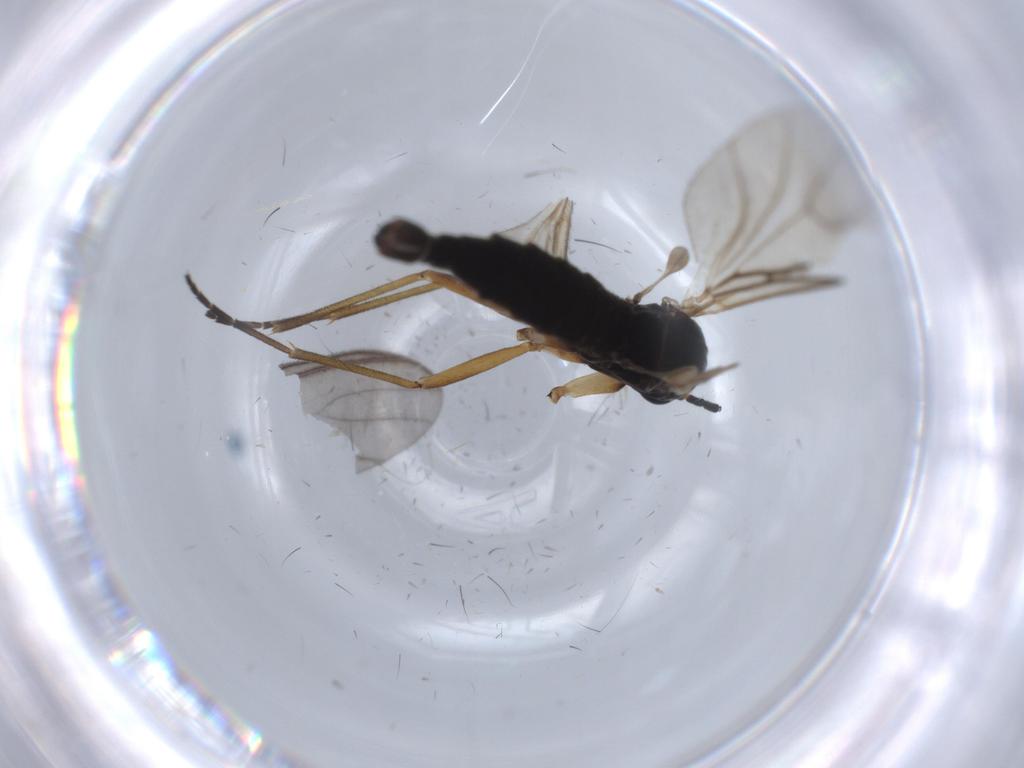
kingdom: Animalia
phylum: Arthropoda
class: Insecta
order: Diptera
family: Sciaridae
